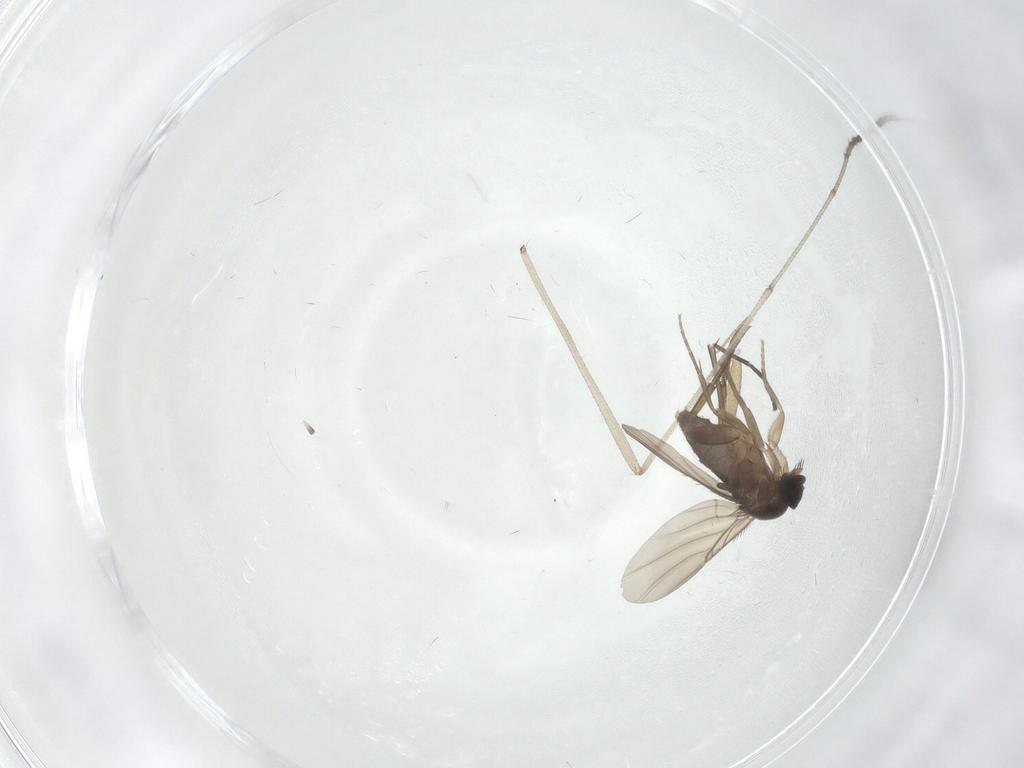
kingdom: Animalia
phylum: Arthropoda
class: Insecta
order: Diptera
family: Phoridae
